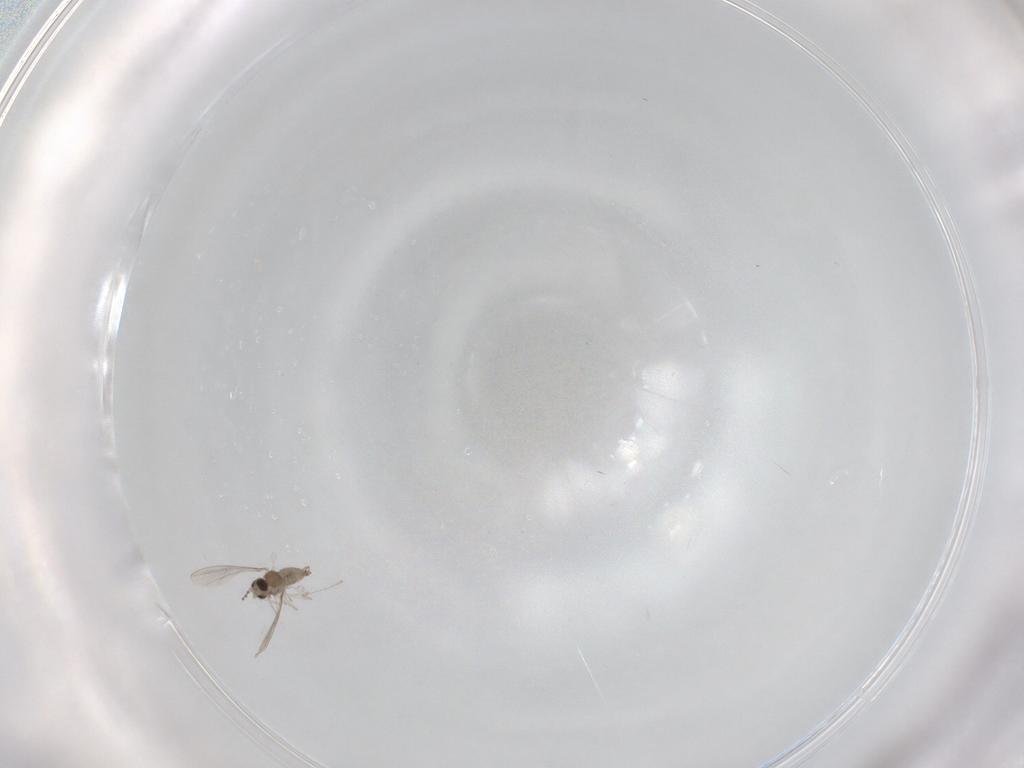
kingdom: Animalia
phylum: Arthropoda
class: Insecta
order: Diptera
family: Cecidomyiidae
